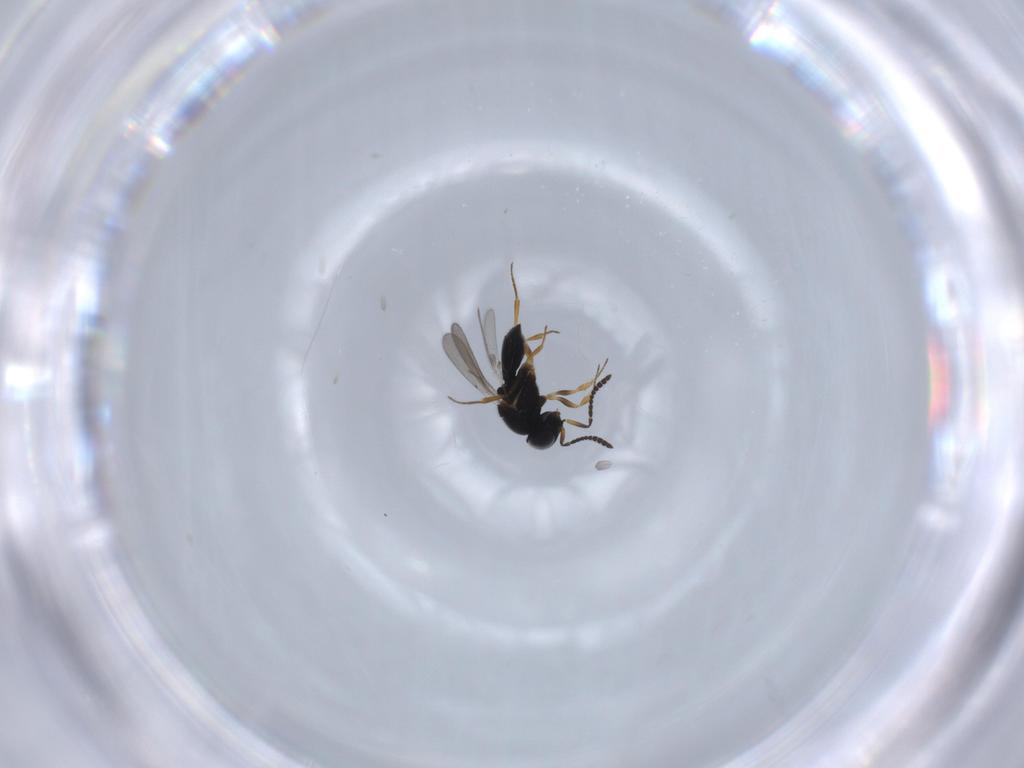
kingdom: Animalia
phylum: Arthropoda
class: Insecta
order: Hymenoptera
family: Scelionidae
